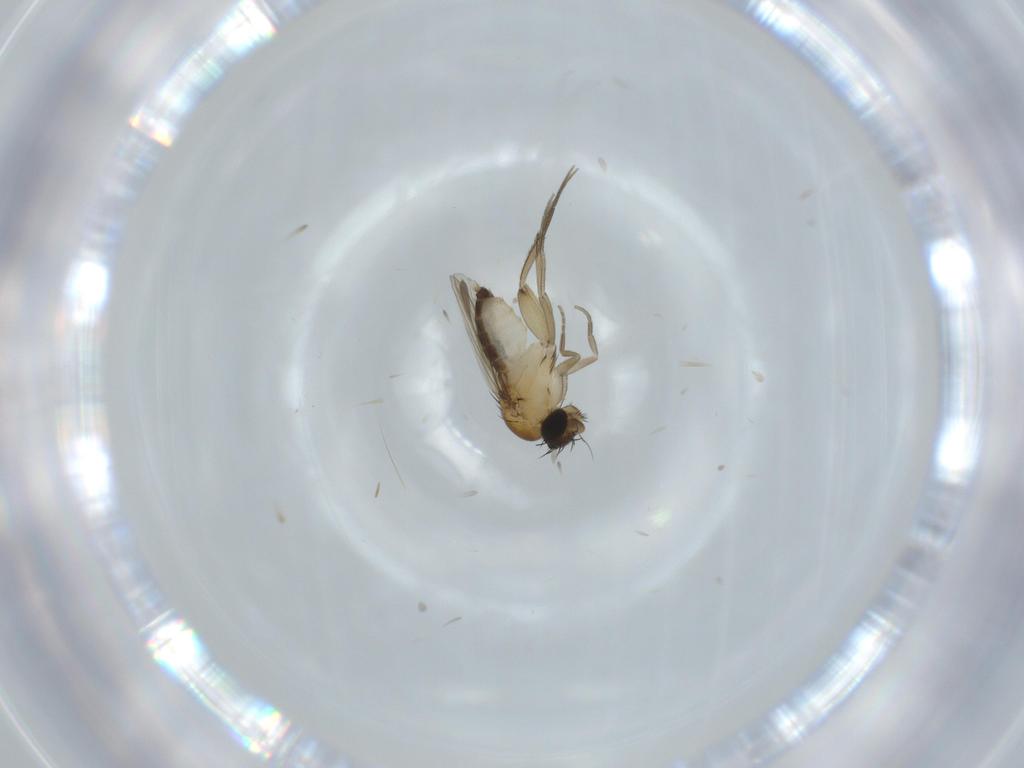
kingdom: Animalia
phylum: Arthropoda
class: Insecta
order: Diptera
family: Phoridae
